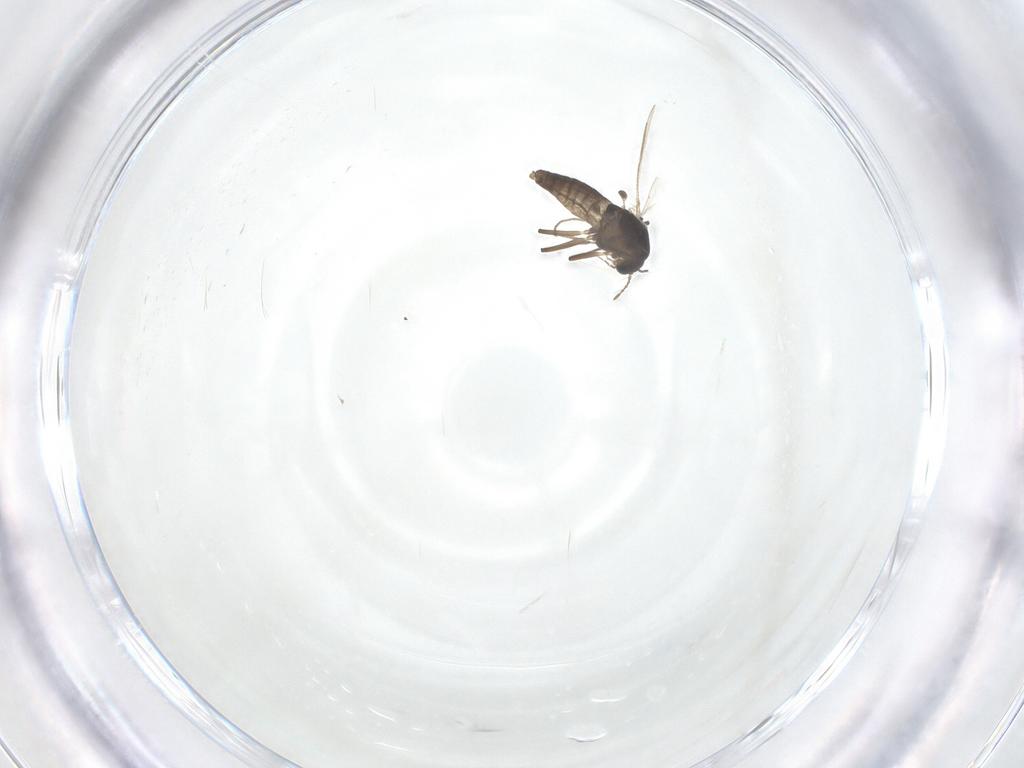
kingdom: Animalia
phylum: Arthropoda
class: Insecta
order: Diptera
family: Chironomidae
